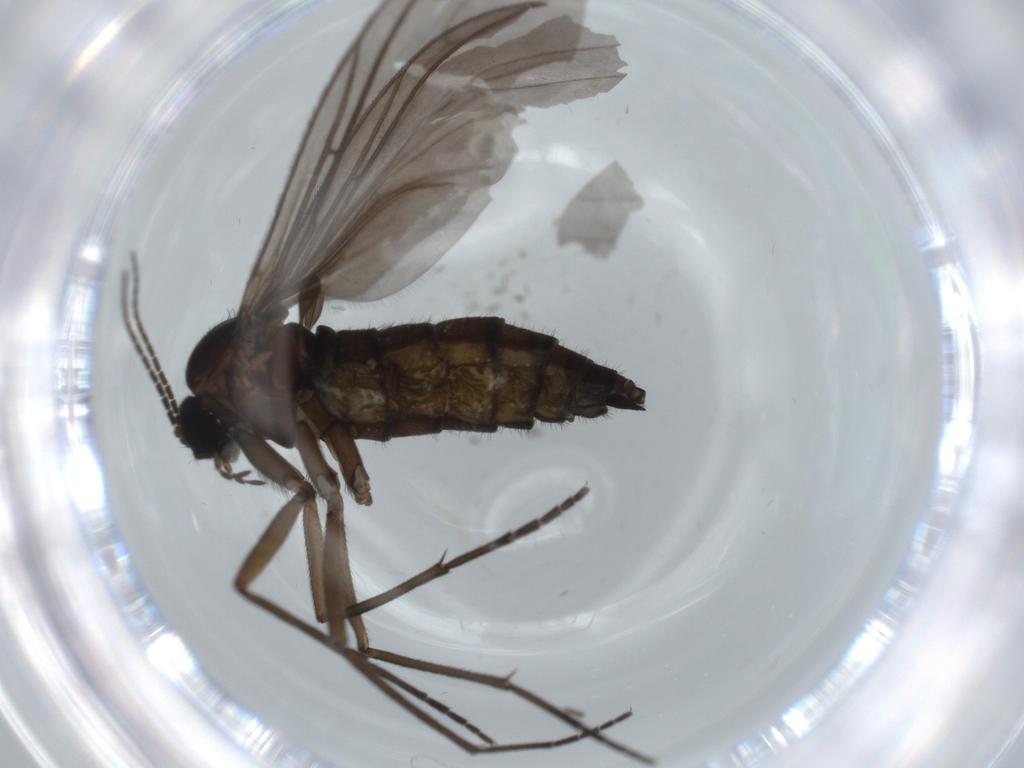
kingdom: Animalia
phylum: Arthropoda
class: Insecta
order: Diptera
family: Sciaridae
